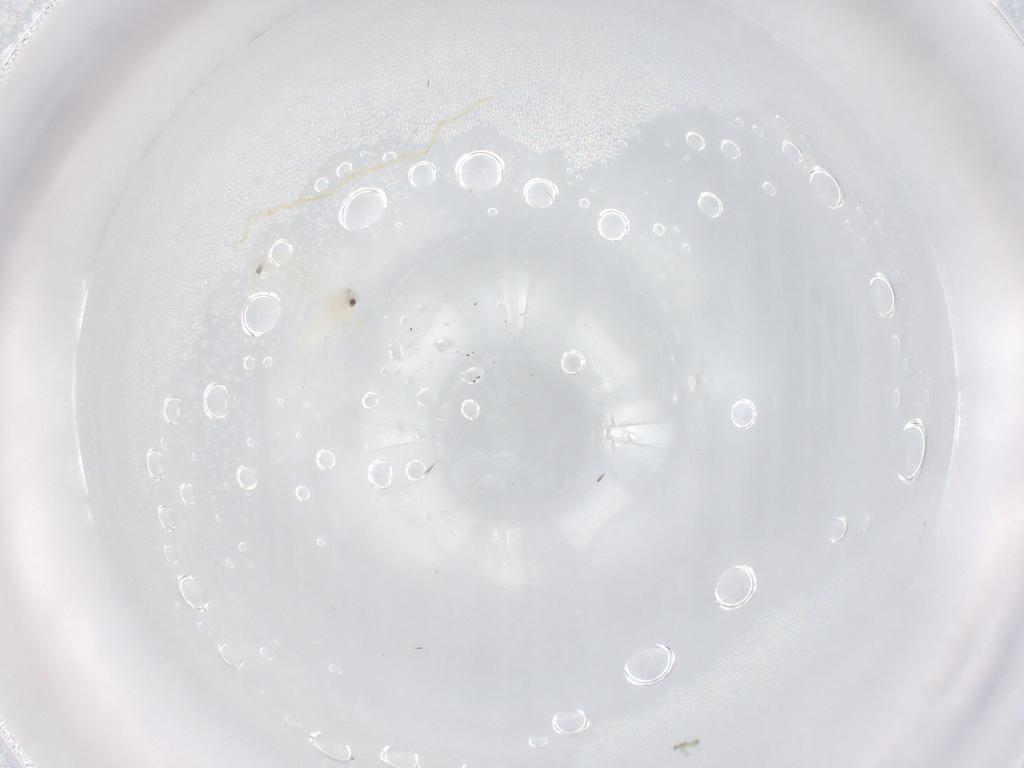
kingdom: Animalia
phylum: Arthropoda
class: Insecta
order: Hemiptera
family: Aleyrodidae
